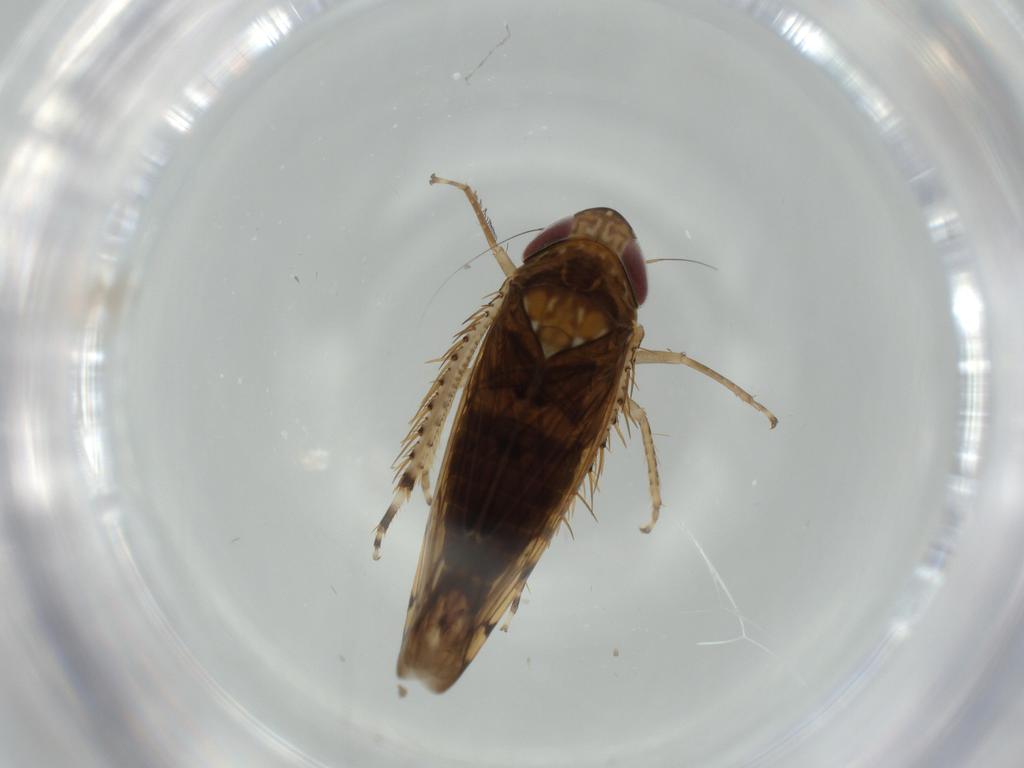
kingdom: Animalia
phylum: Arthropoda
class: Insecta
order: Hemiptera
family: Cicadellidae
